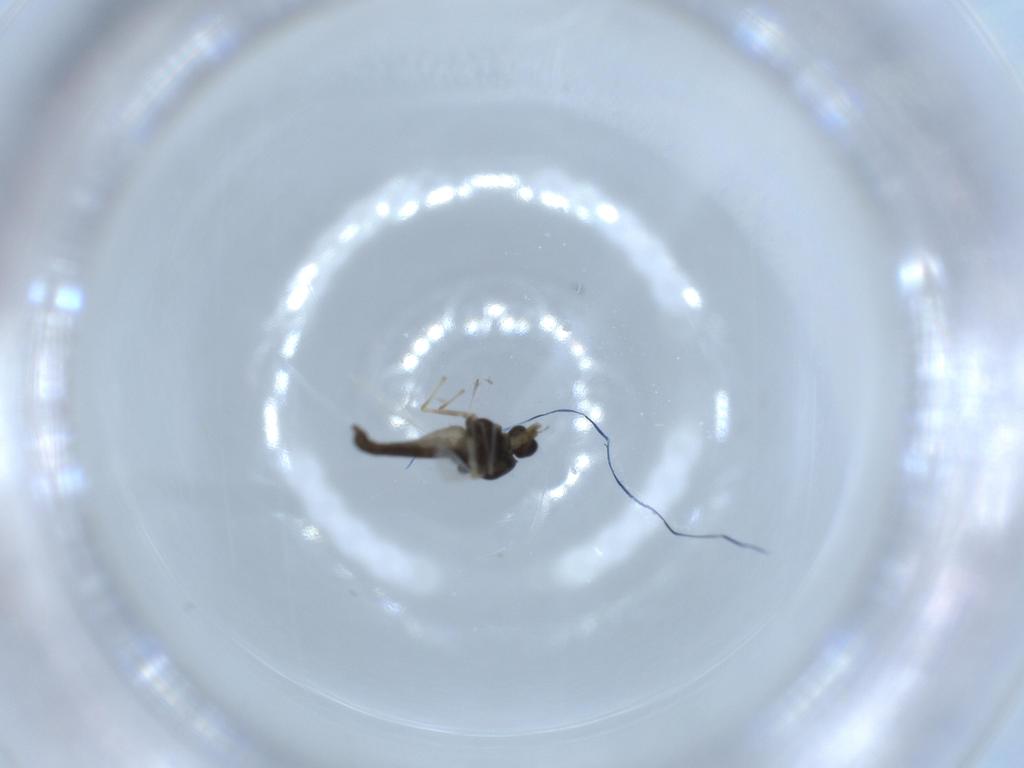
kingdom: Animalia
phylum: Arthropoda
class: Insecta
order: Diptera
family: Chironomidae
